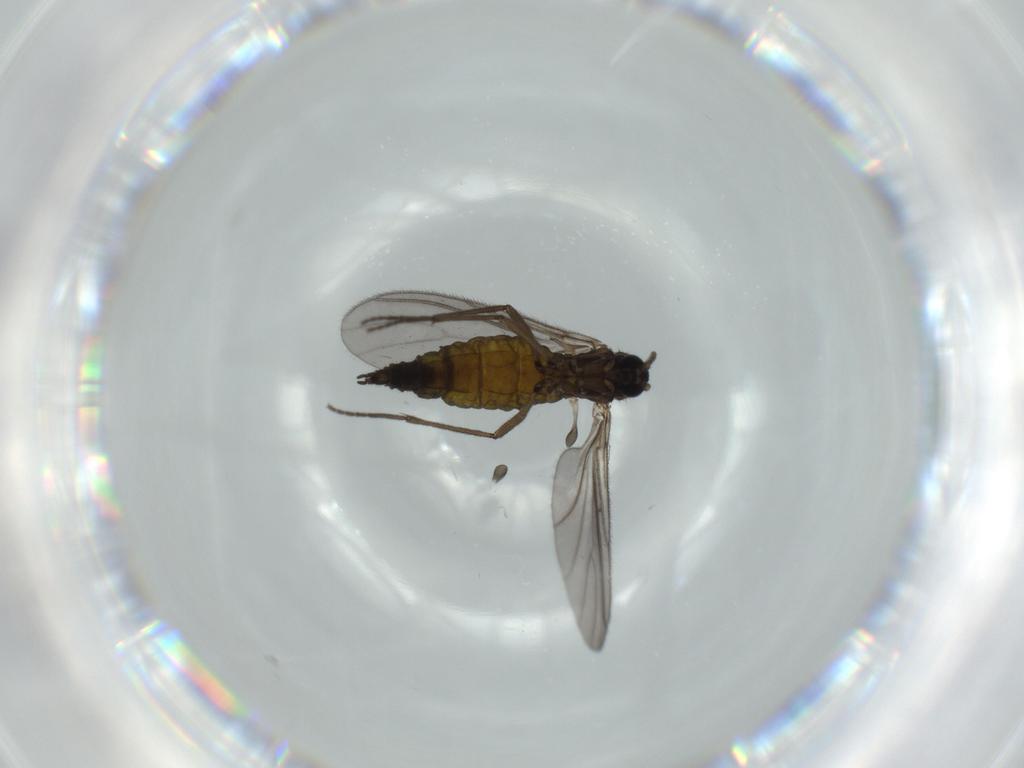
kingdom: Animalia
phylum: Arthropoda
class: Insecta
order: Diptera
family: Sciaridae
